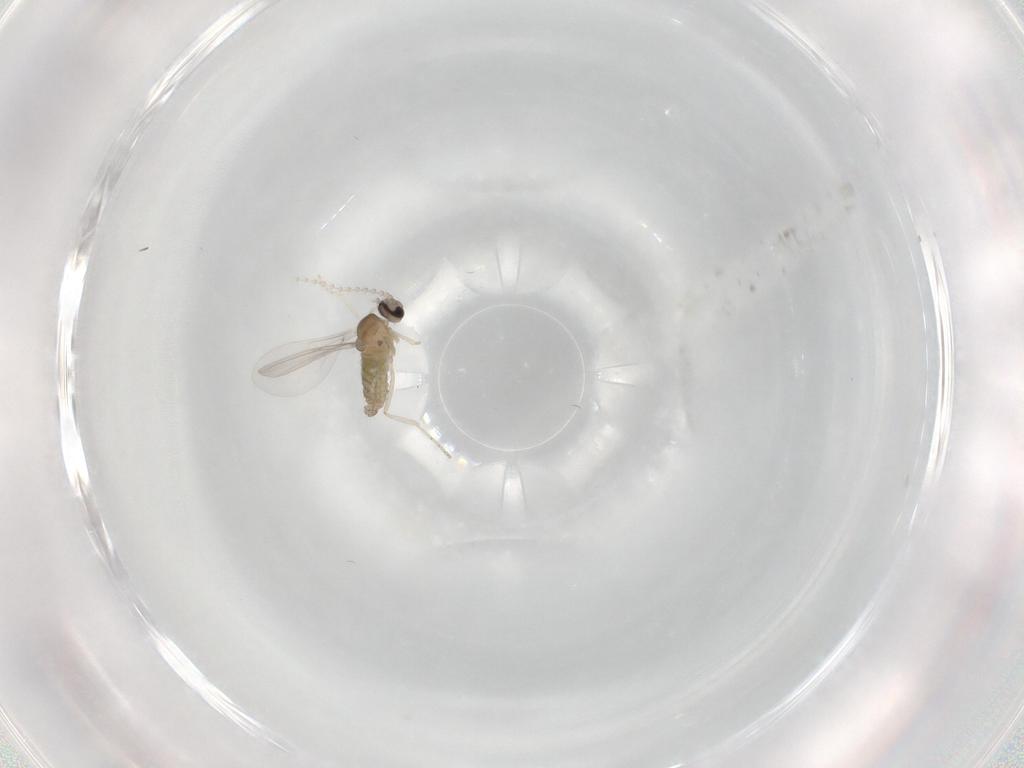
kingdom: Animalia
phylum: Arthropoda
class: Insecta
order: Diptera
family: Cecidomyiidae
